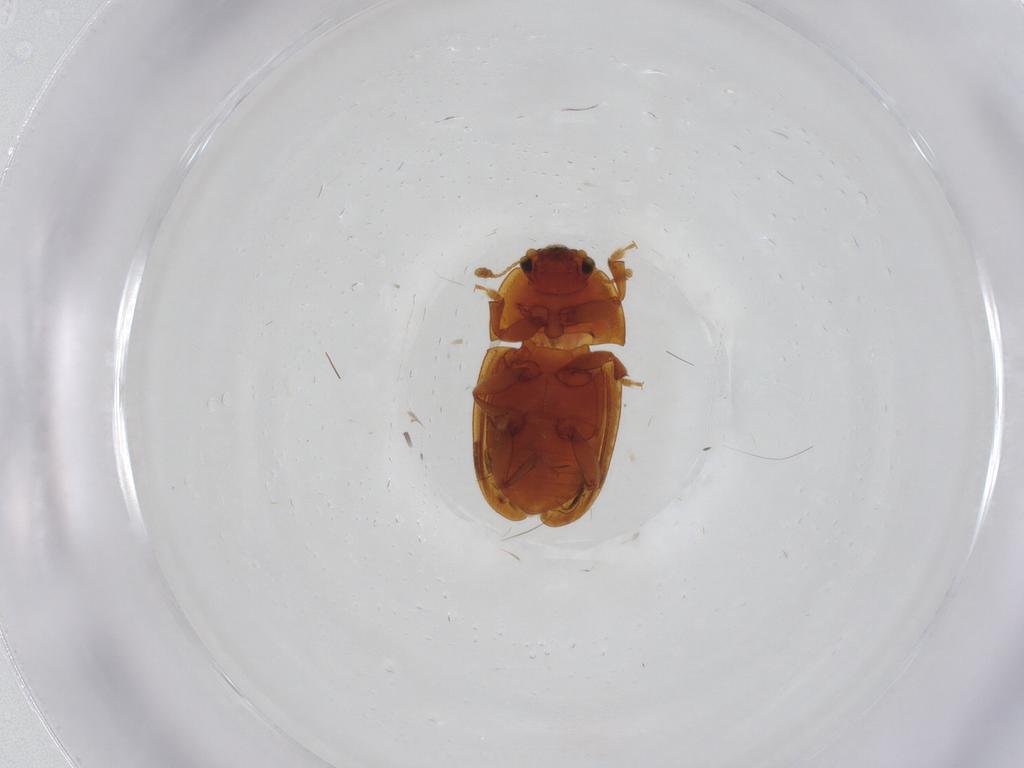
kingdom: Animalia
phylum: Arthropoda
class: Insecta
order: Coleoptera
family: Nitidulidae
